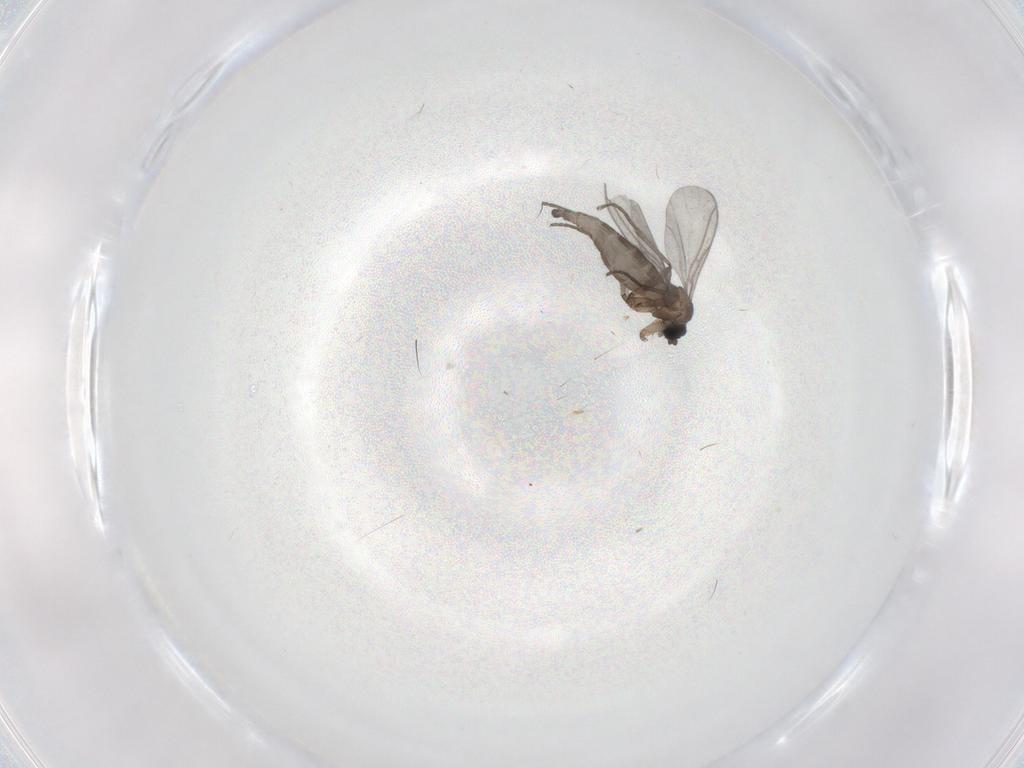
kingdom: Animalia
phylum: Arthropoda
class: Insecta
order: Diptera
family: Sciaridae
